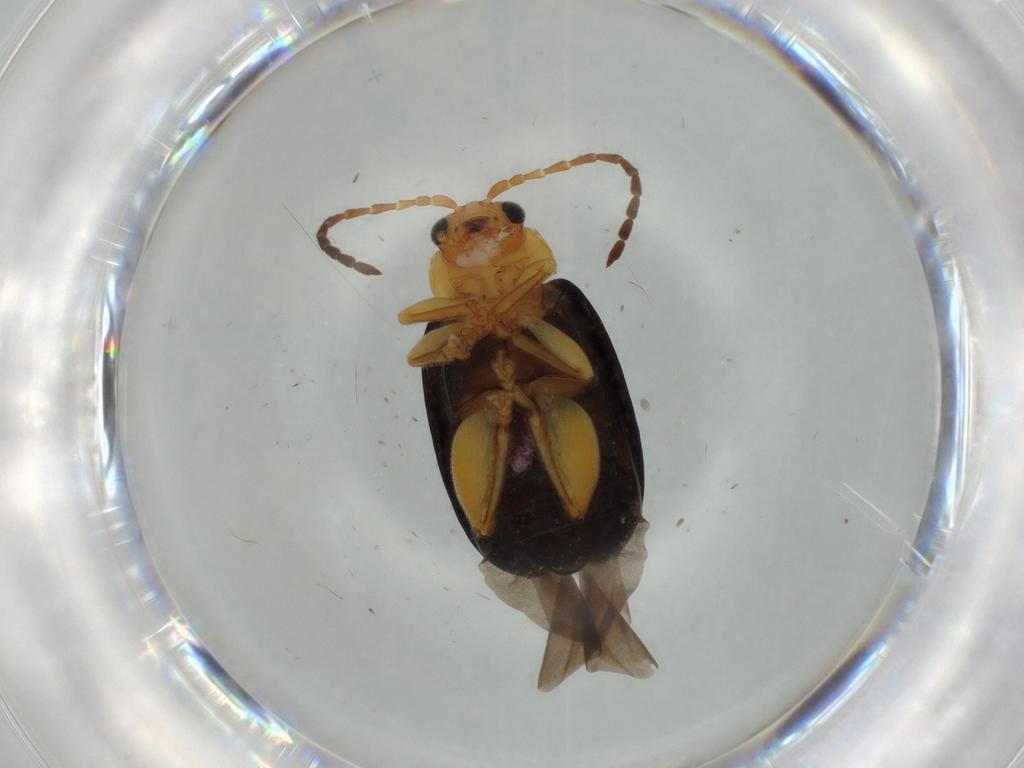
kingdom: Animalia
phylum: Arthropoda
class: Insecta
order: Coleoptera
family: Chrysomelidae
